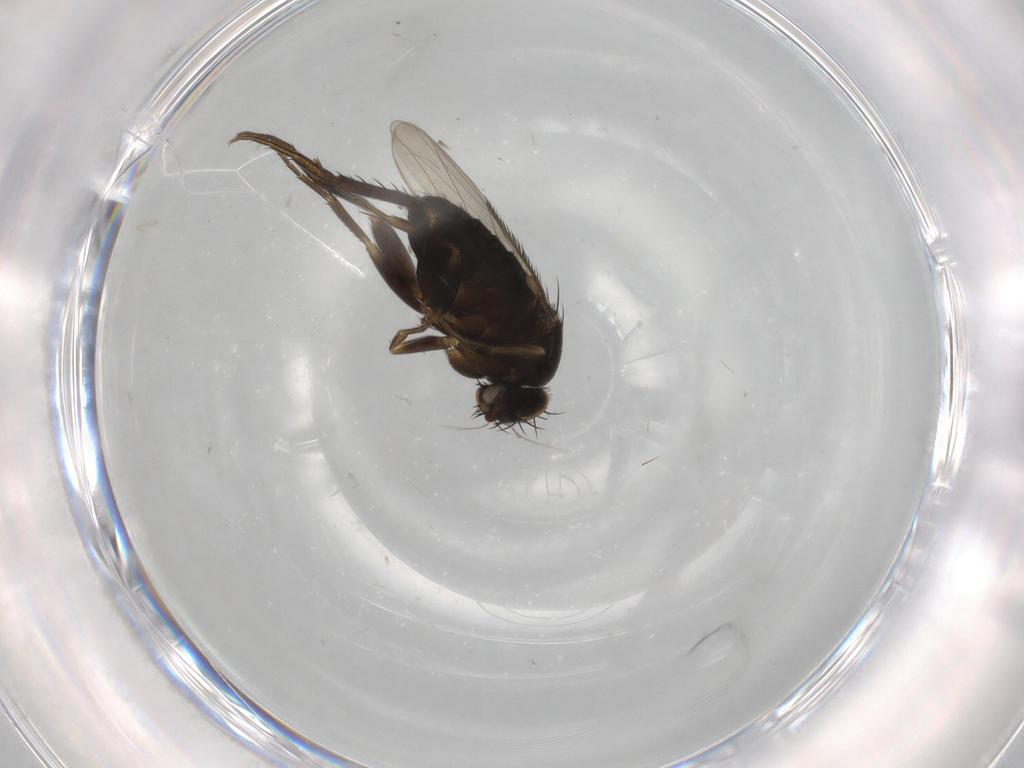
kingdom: Animalia
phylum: Arthropoda
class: Insecta
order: Diptera
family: Phoridae
